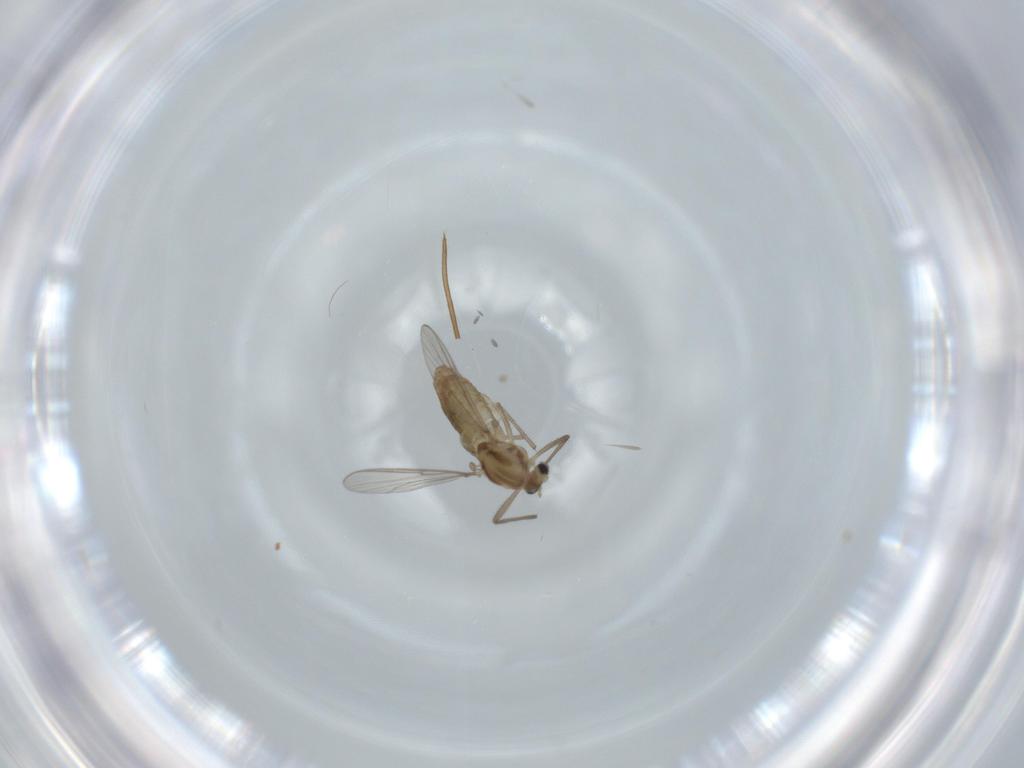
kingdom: Animalia
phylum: Arthropoda
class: Insecta
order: Diptera
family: Chironomidae
